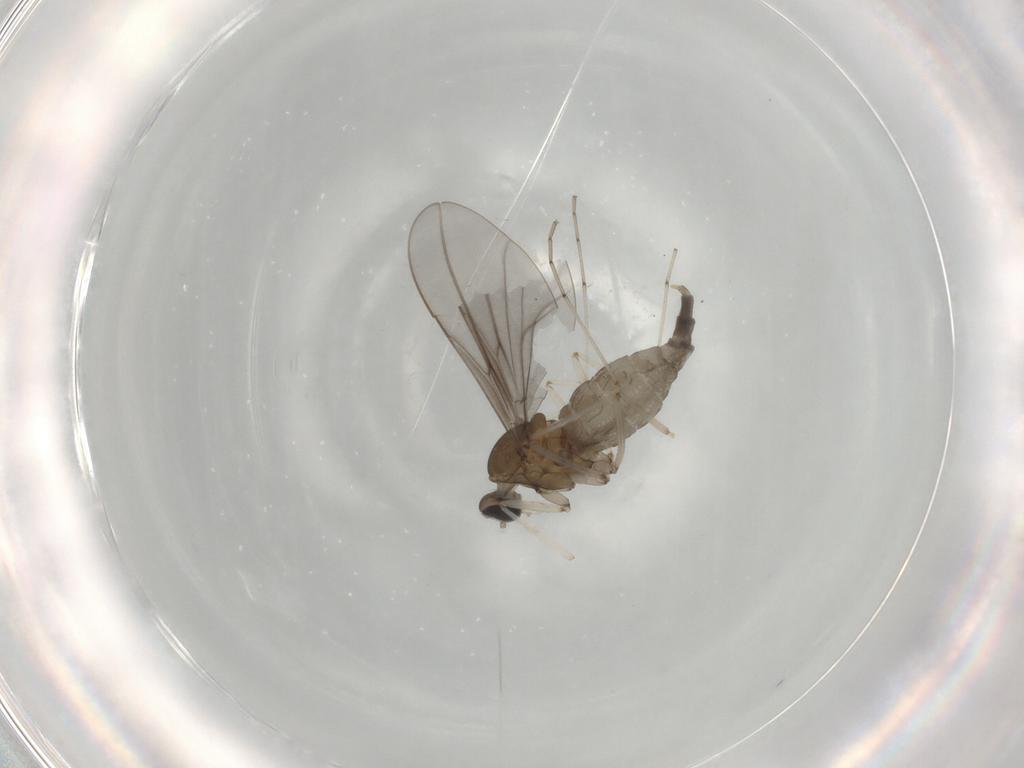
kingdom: Animalia
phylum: Arthropoda
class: Insecta
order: Diptera
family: Cecidomyiidae
